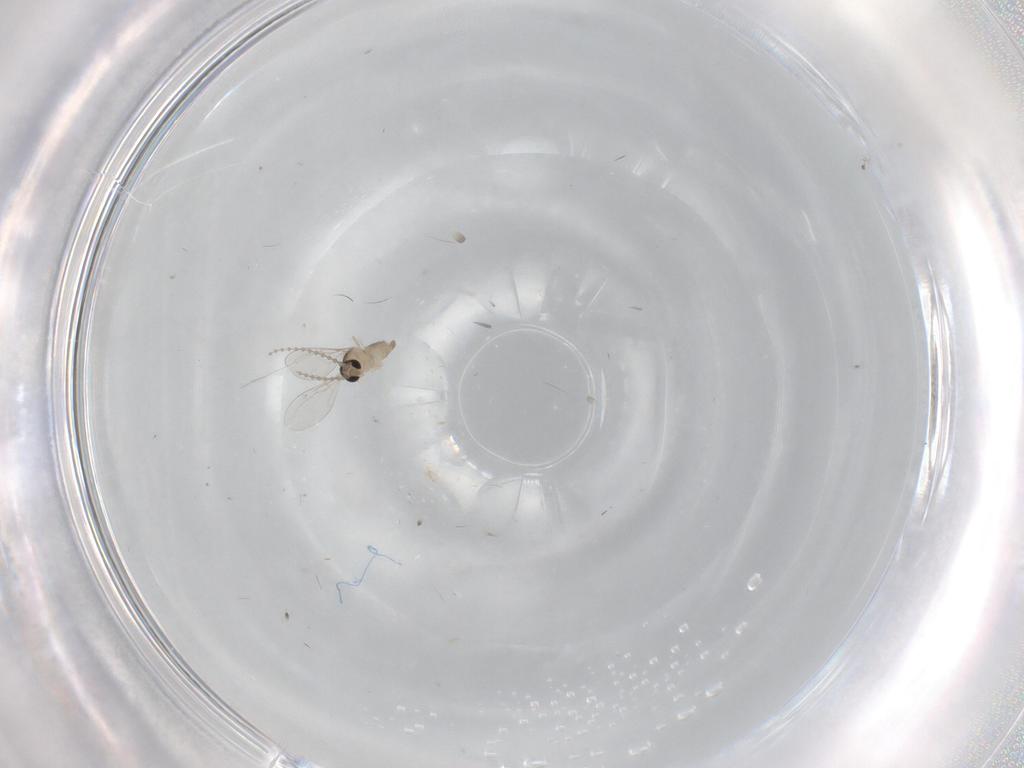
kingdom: Animalia
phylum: Arthropoda
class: Insecta
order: Diptera
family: Cecidomyiidae
